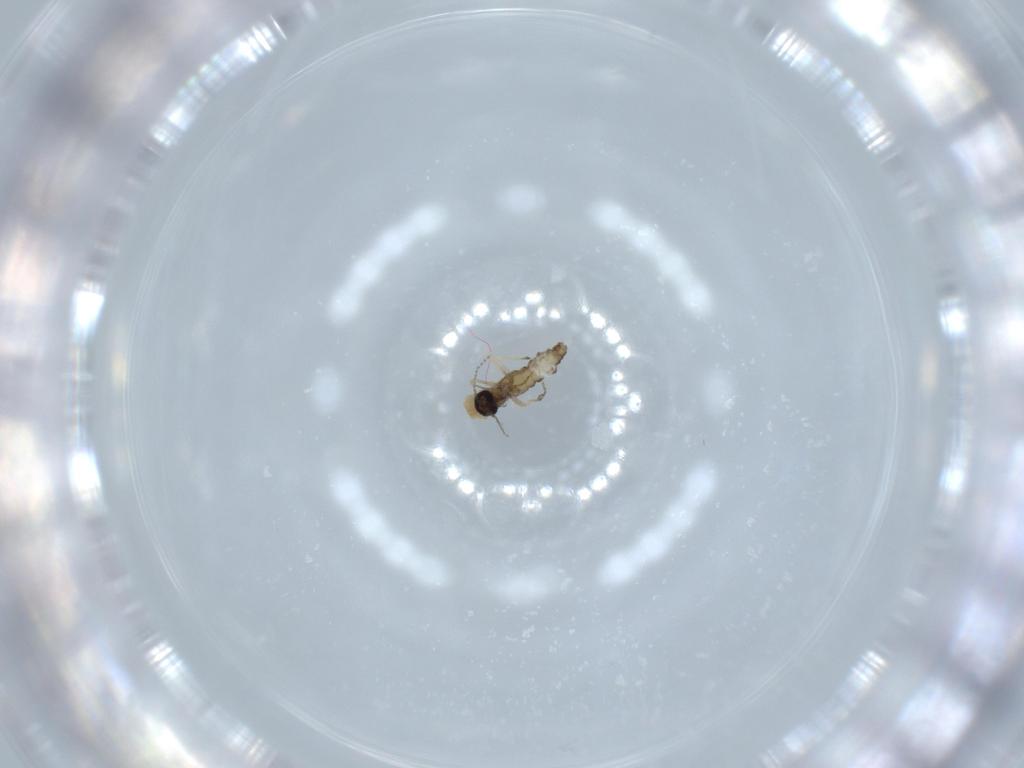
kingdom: Animalia
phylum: Arthropoda
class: Insecta
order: Diptera
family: Ceratopogonidae
